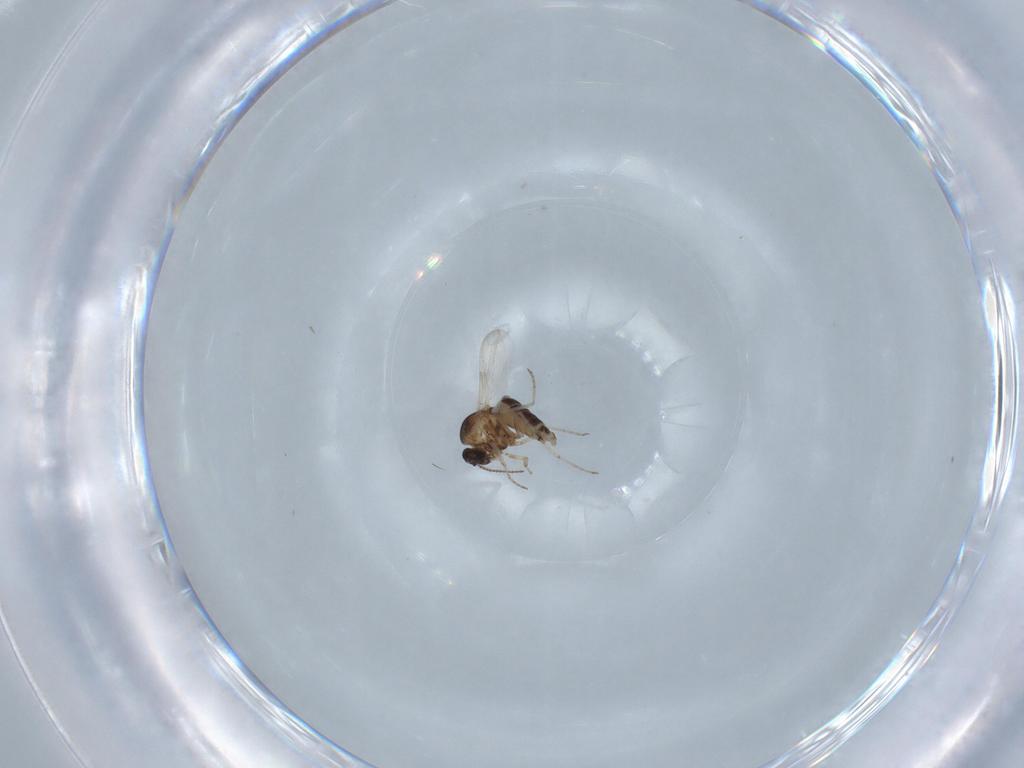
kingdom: Animalia
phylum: Arthropoda
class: Insecta
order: Diptera
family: Ceratopogonidae
